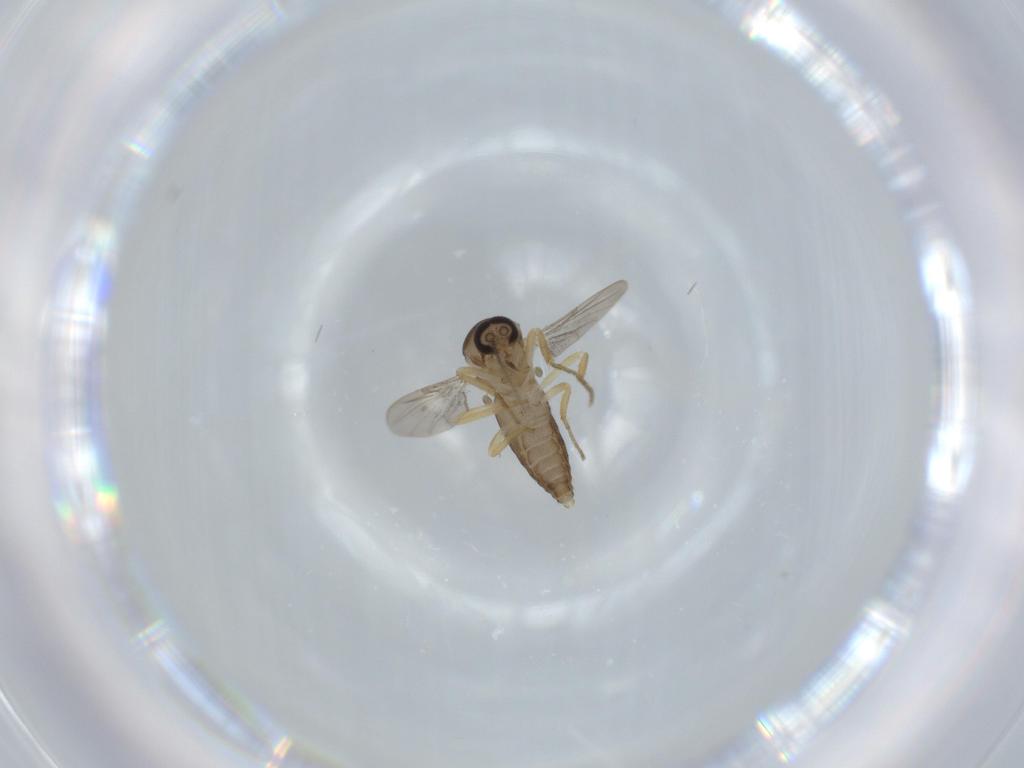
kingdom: Animalia
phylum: Arthropoda
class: Insecta
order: Diptera
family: Ceratopogonidae
